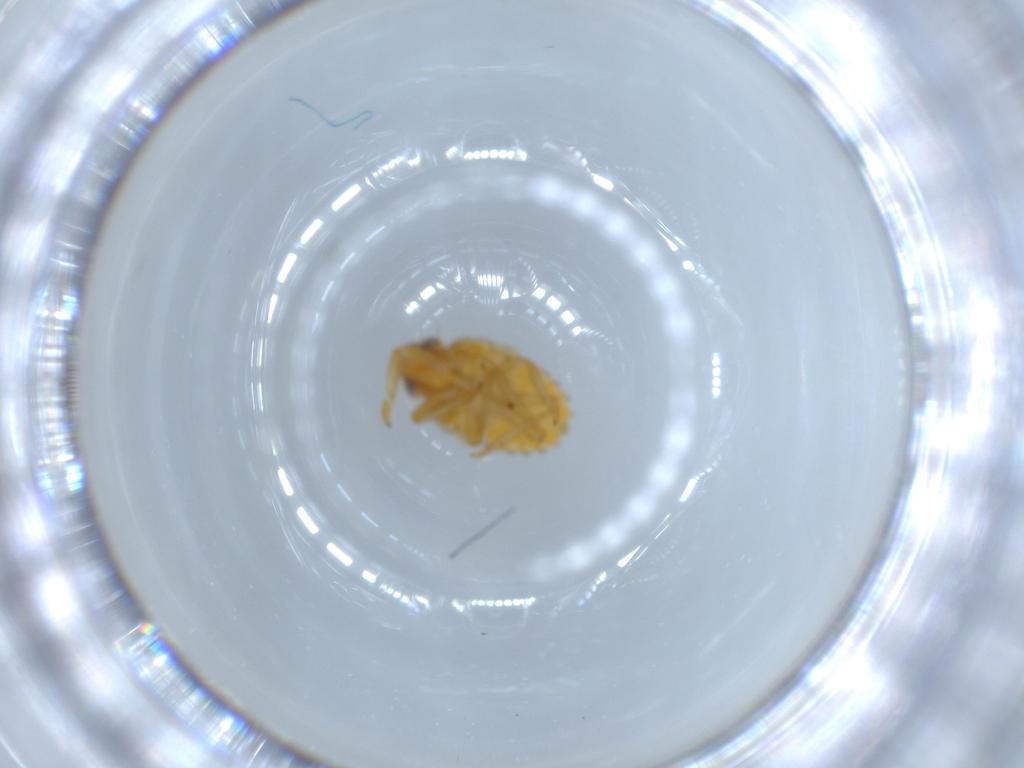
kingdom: Animalia
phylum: Arthropoda
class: Insecta
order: Hemiptera
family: Issidae
